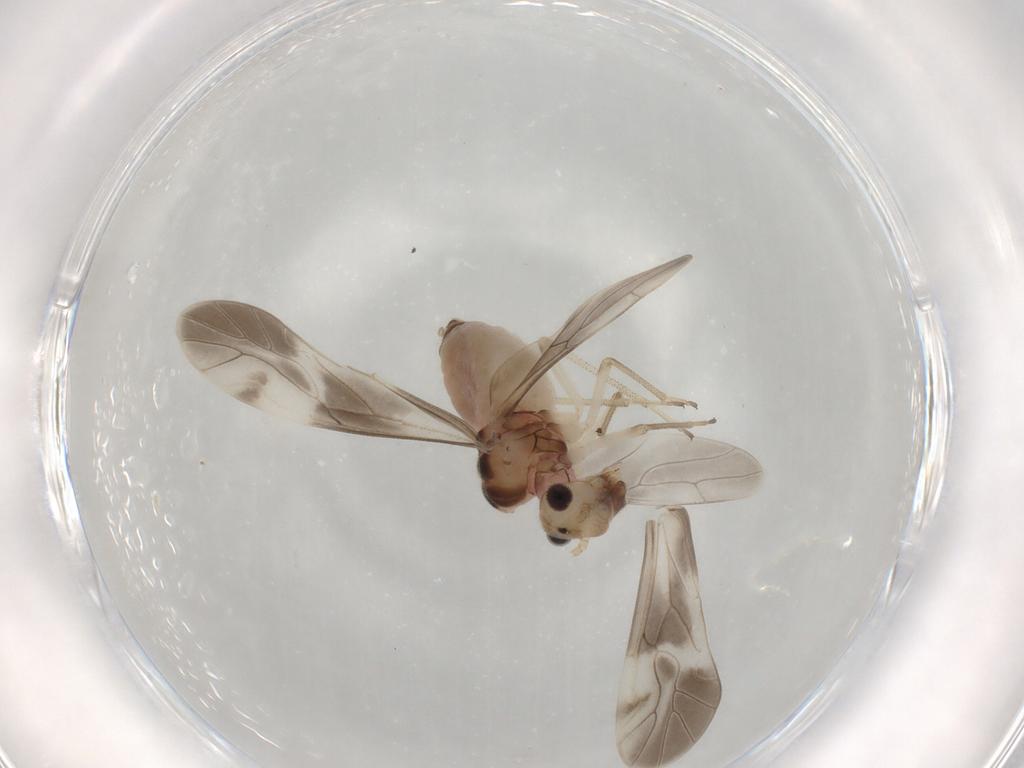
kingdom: Animalia
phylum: Arthropoda
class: Insecta
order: Psocodea
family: Caeciliusidae
